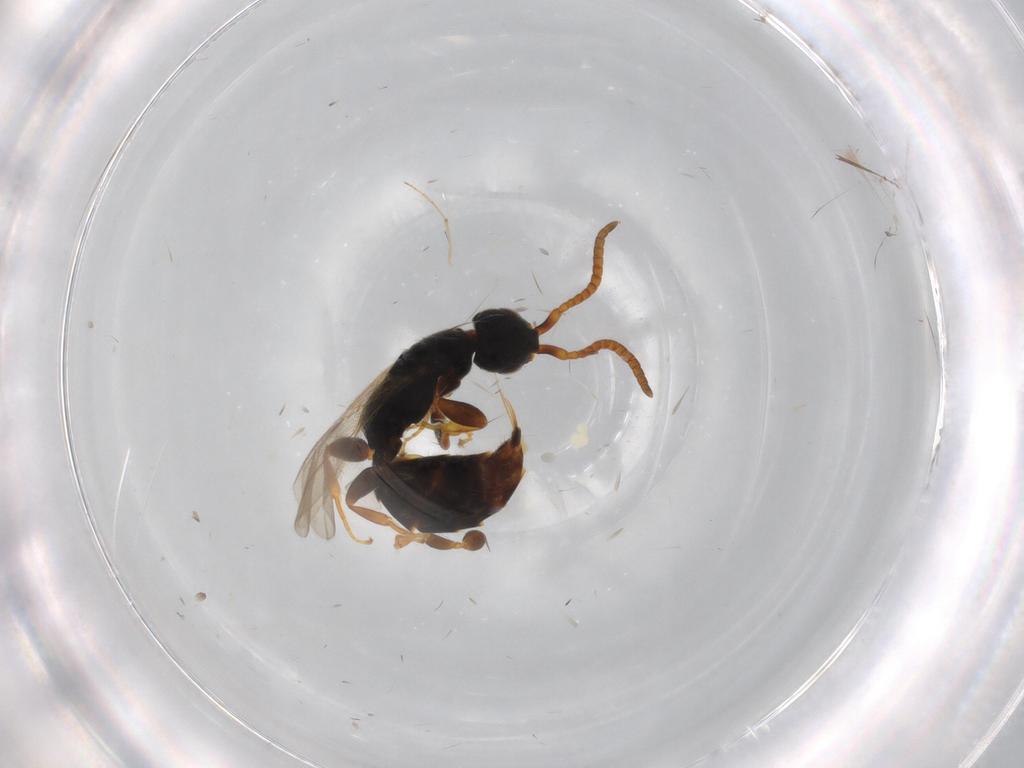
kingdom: Animalia
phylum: Arthropoda
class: Insecta
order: Hymenoptera
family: Bethylidae
